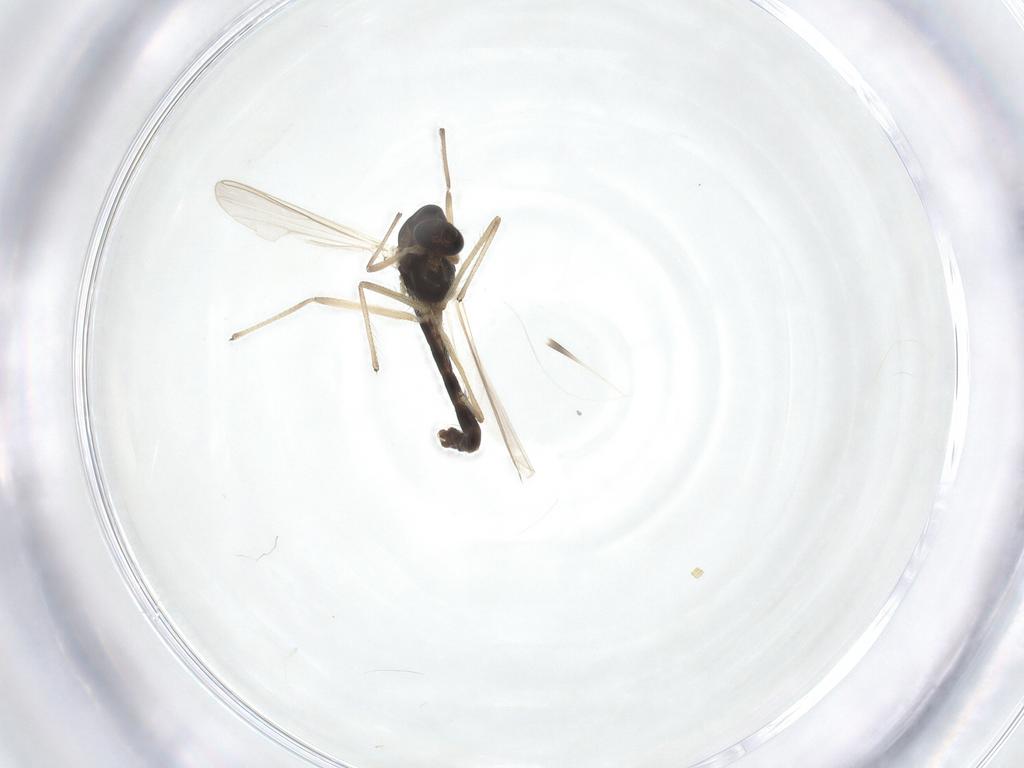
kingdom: Animalia
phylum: Arthropoda
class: Insecta
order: Diptera
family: Chironomidae
